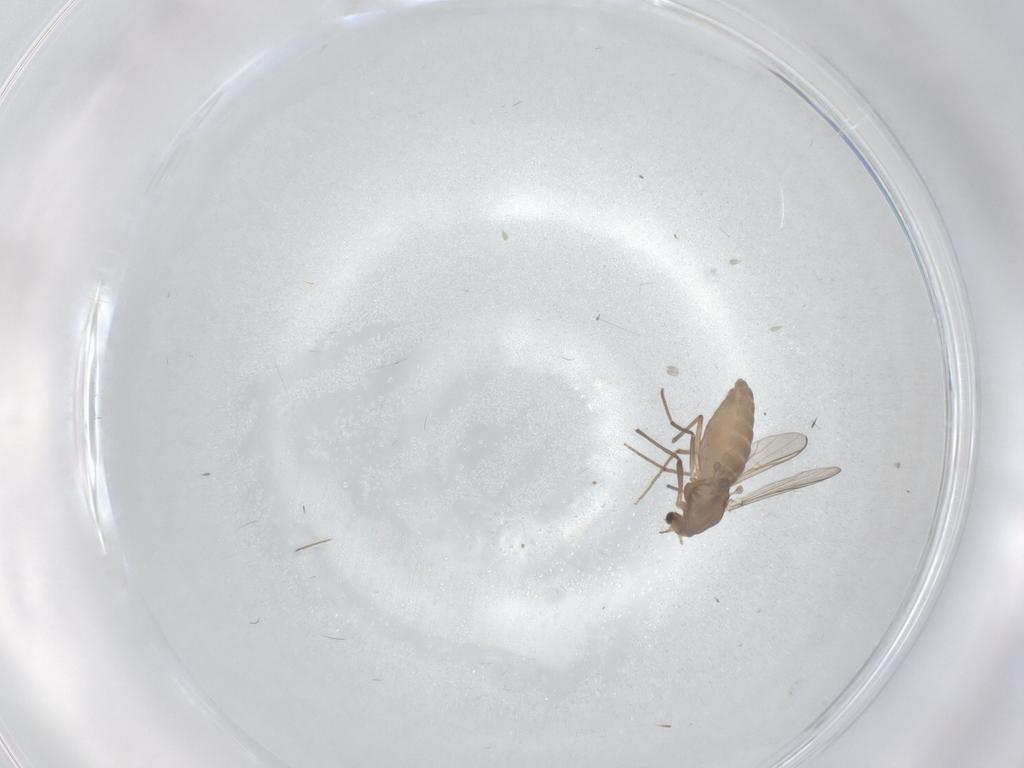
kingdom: Animalia
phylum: Arthropoda
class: Insecta
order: Diptera
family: Chironomidae
